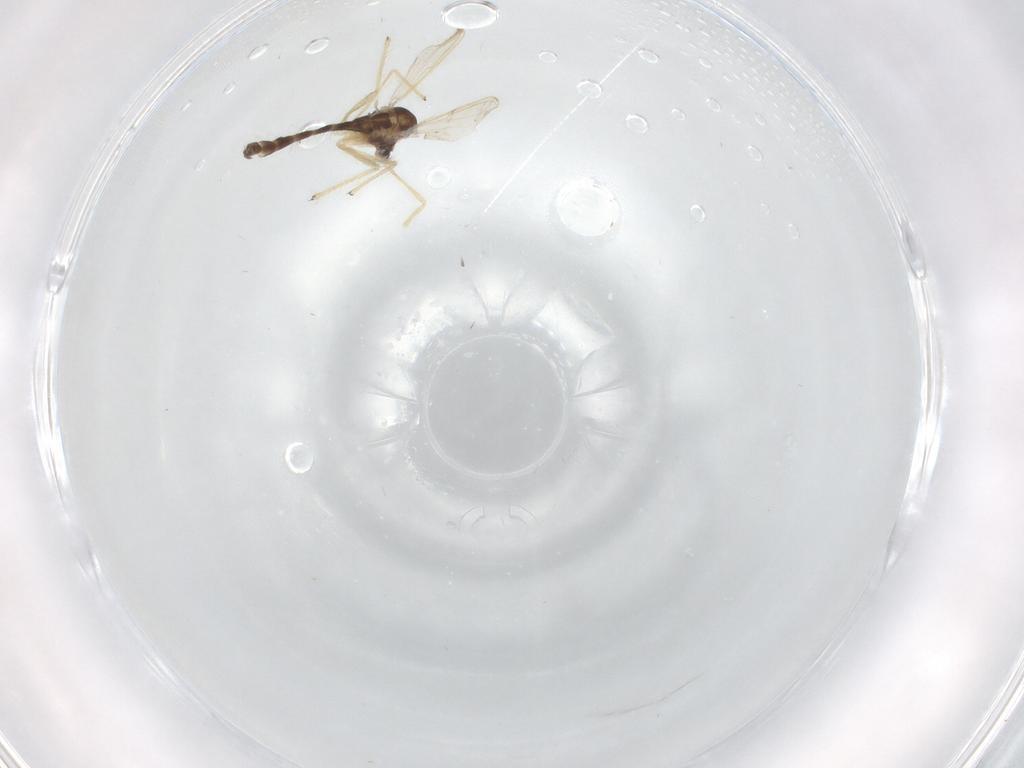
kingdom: Animalia
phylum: Arthropoda
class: Insecta
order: Diptera
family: Chironomidae
